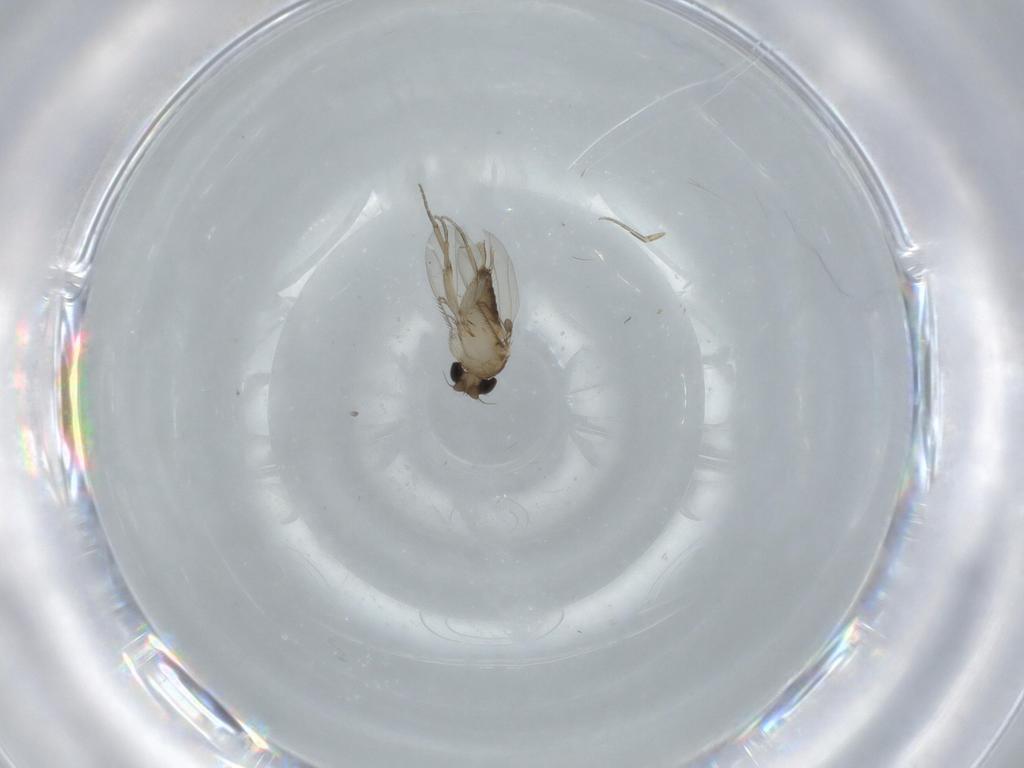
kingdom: Animalia
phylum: Arthropoda
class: Insecta
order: Diptera
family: Phoridae
